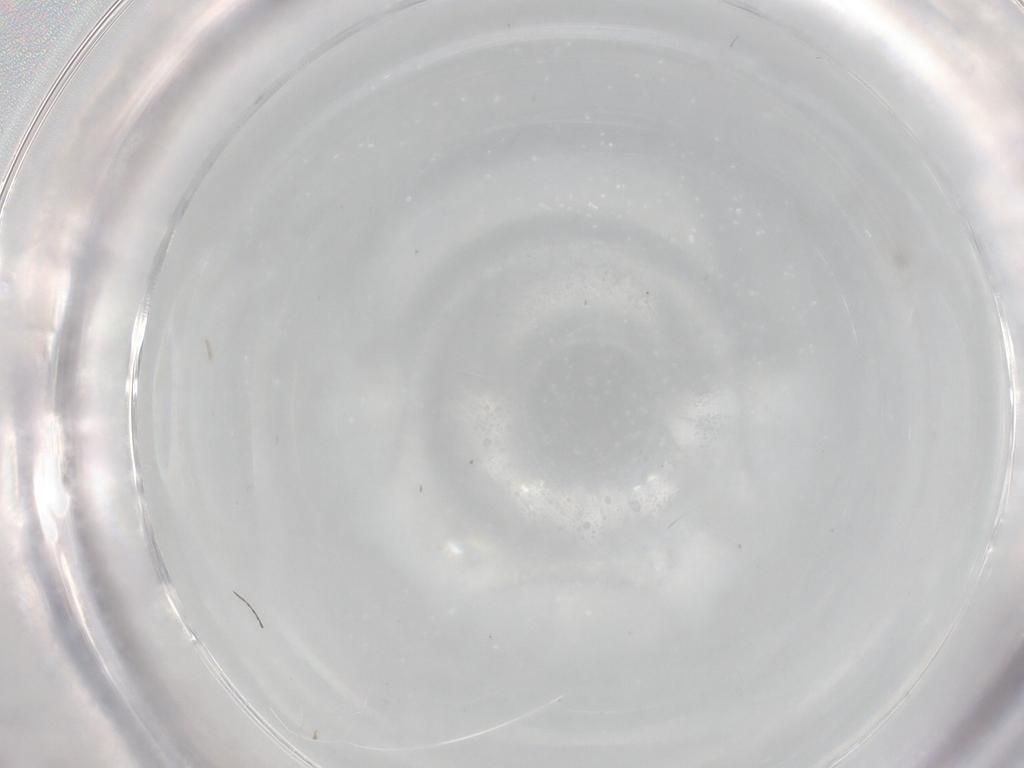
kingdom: Animalia
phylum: Arthropoda
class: Insecta
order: Diptera
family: Chironomidae
